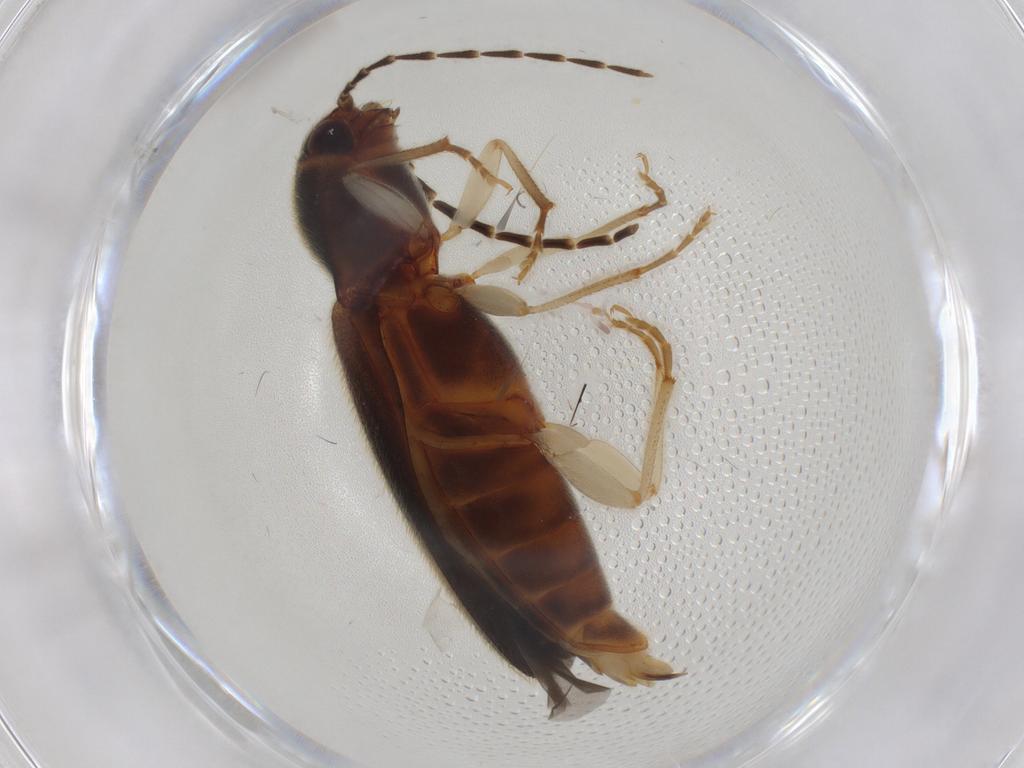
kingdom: Animalia
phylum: Arthropoda
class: Insecta
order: Coleoptera
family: Elateridae
